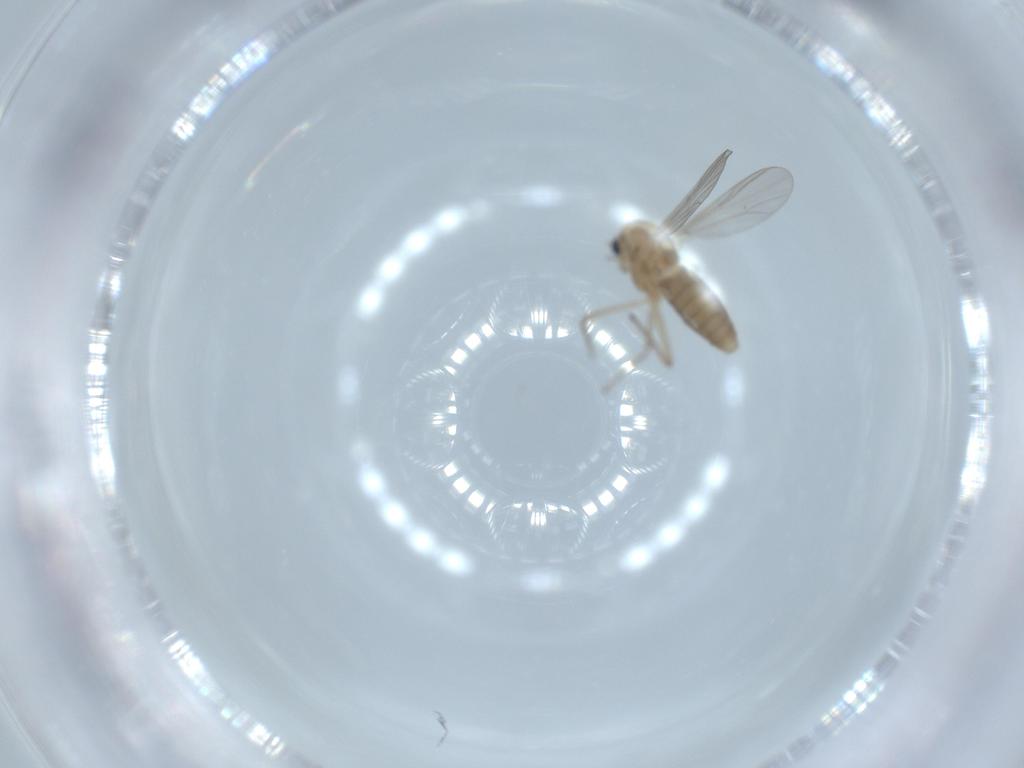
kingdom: Animalia
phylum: Arthropoda
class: Insecta
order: Diptera
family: Chironomidae
